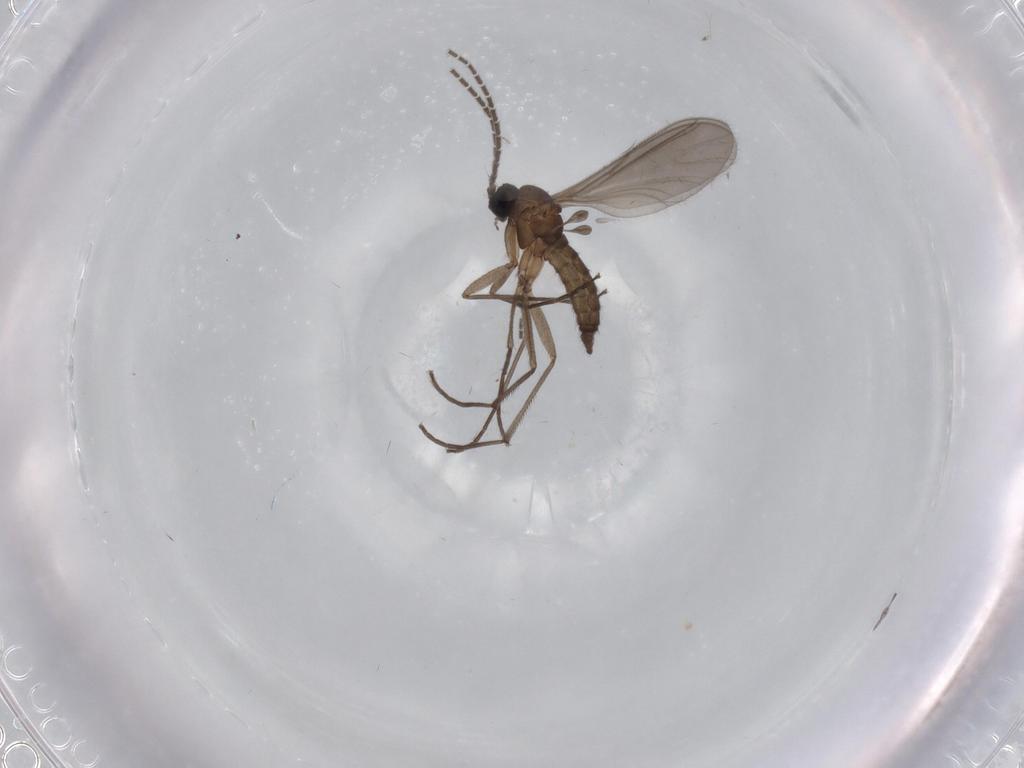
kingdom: Animalia
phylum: Arthropoda
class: Insecta
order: Diptera
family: Sciaridae
